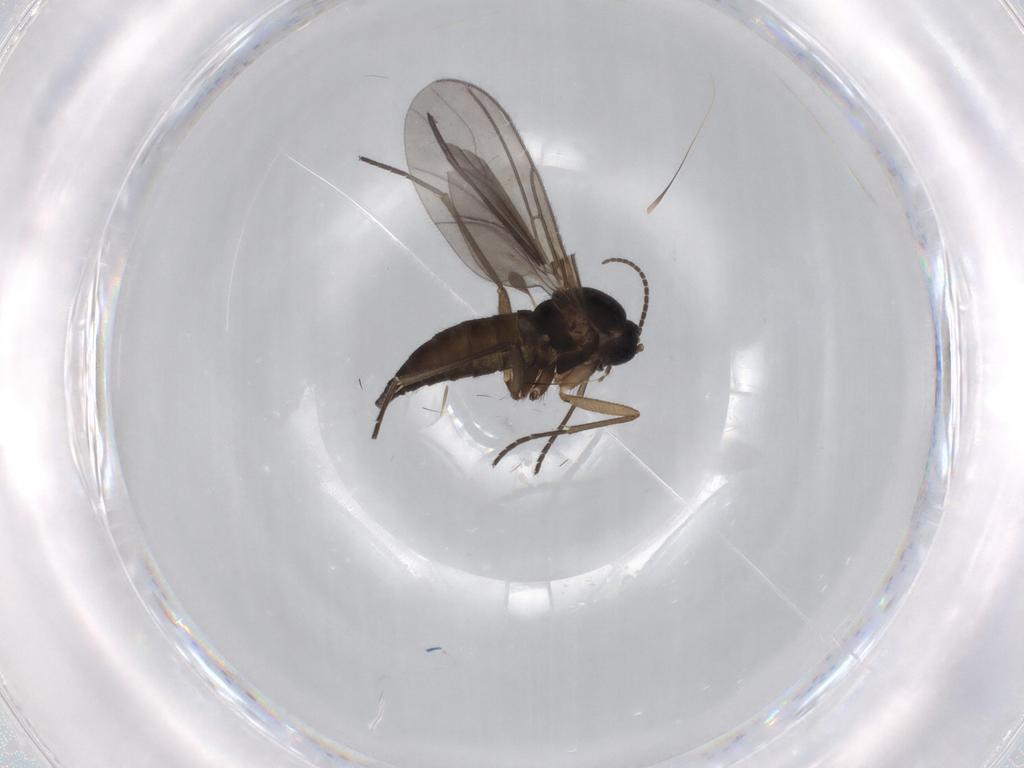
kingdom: Animalia
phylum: Arthropoda
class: Insecta
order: Diptera
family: Sciaridae
